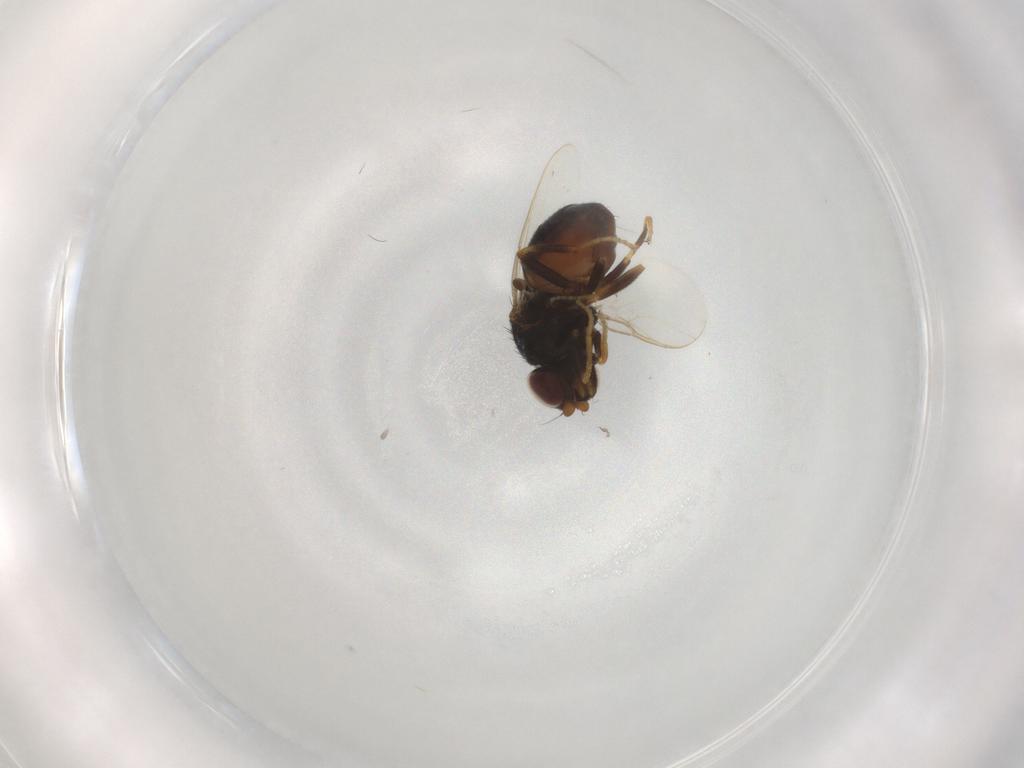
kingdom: Animalia
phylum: Arthropoda
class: Insecta
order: Diptera
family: Chloropidae
